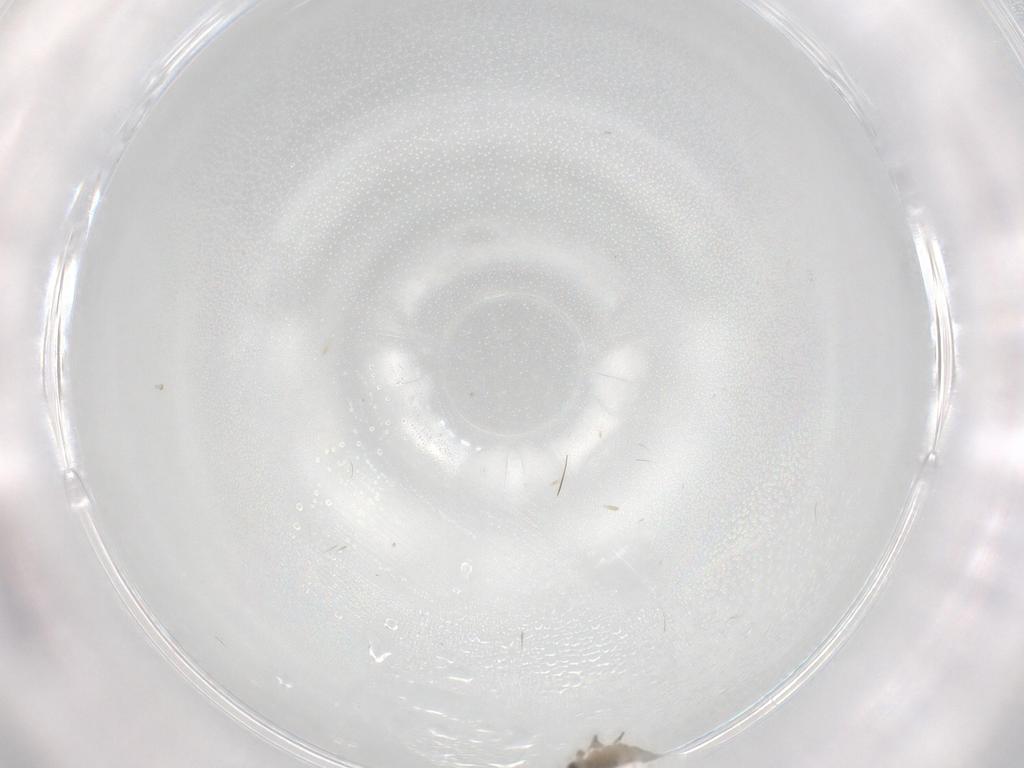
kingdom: Animalia
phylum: Arthropoda
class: Insecta
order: Diptera
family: Cecidomyiidae
